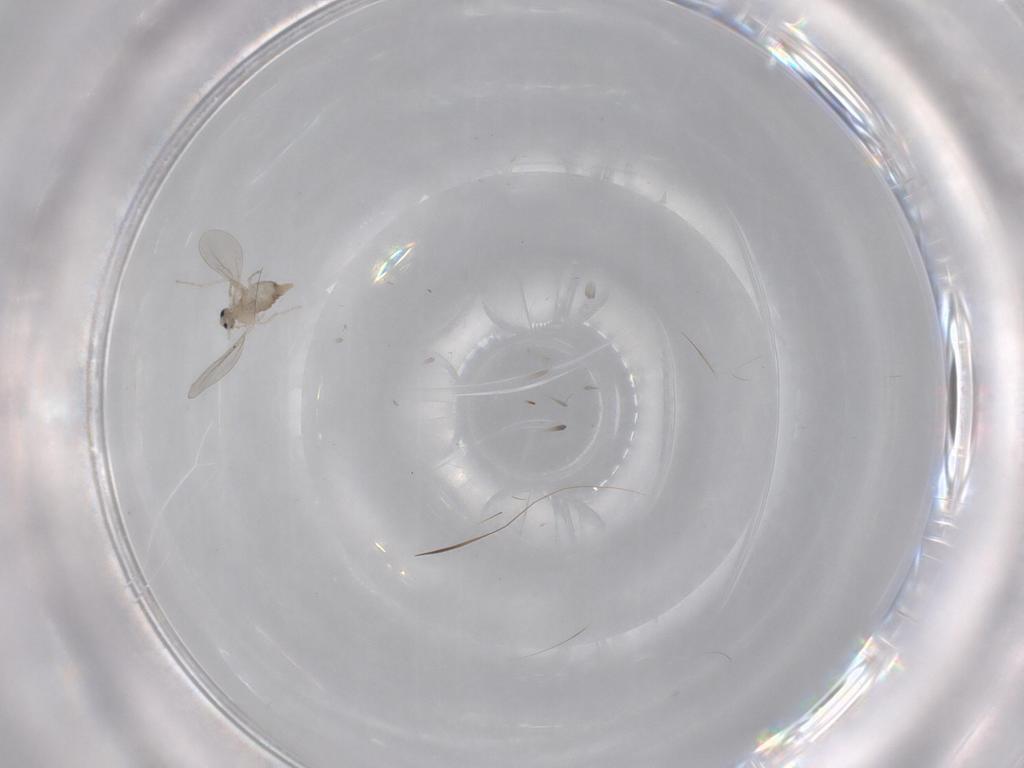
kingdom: Animalia
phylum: Arthropoda
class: Insecta
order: Diptera
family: Cecidomyiidae
